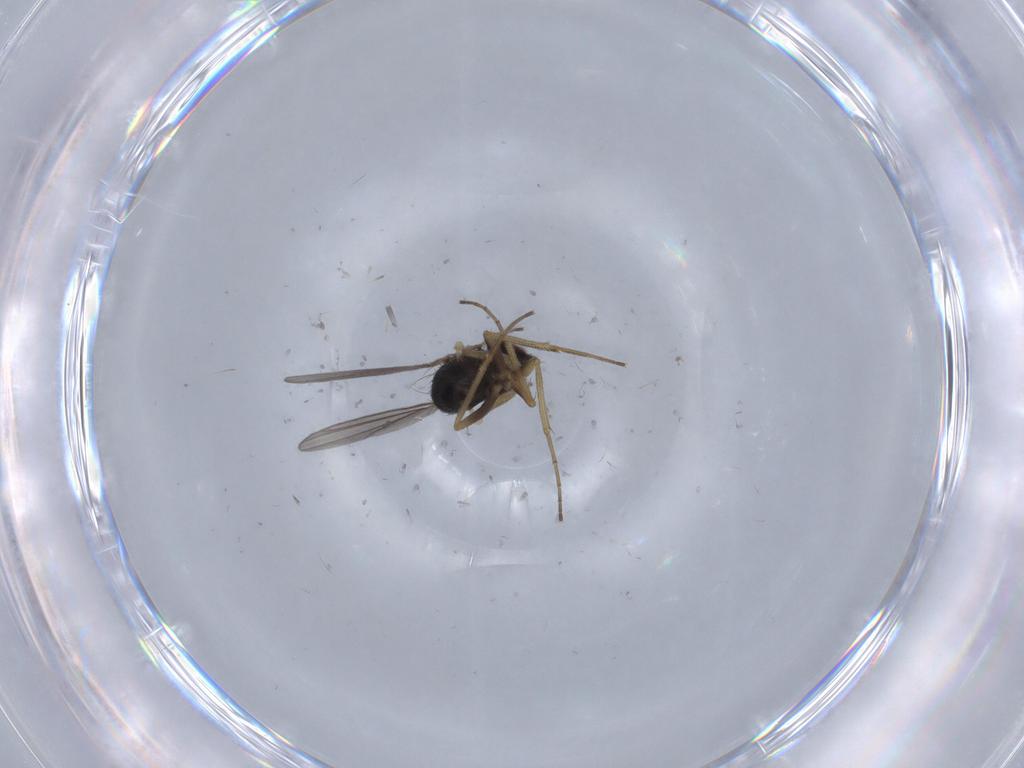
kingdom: Animalia
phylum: Arthropoda
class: Insecta
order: Diptera
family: Dolichopodidae
